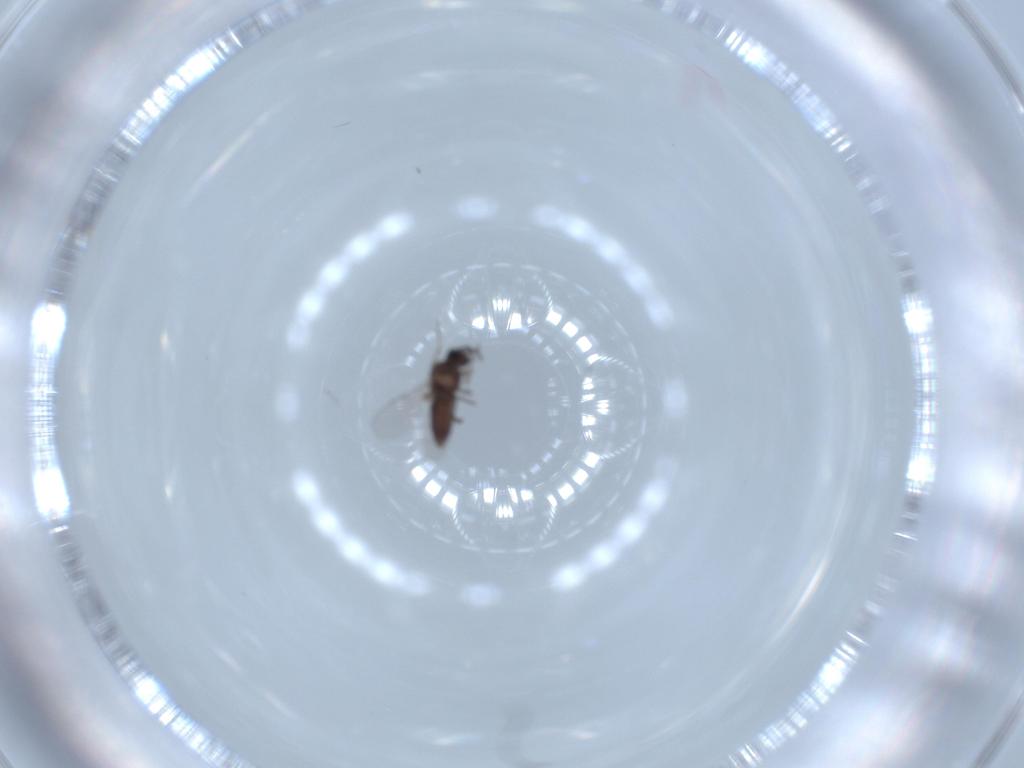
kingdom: Animalia
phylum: Arthropoda
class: Insecta
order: Diptera
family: Ceratopogonidae
